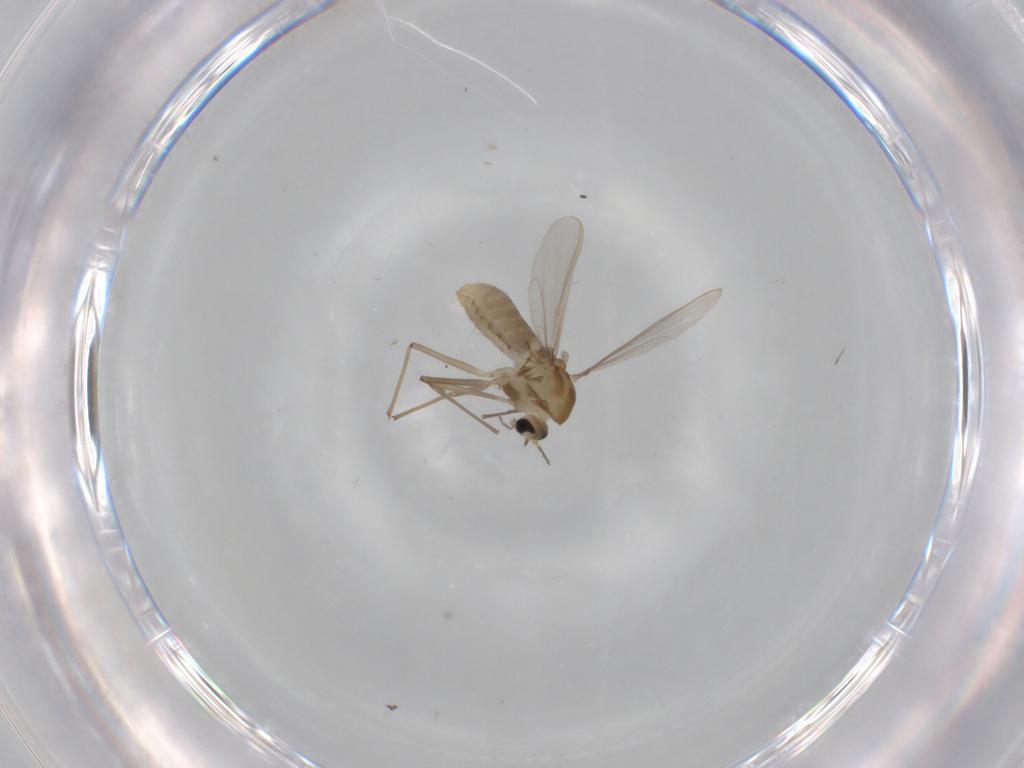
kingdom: Animalia
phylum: Arthropoda
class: Insecta
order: Diptera
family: Chironomidae
